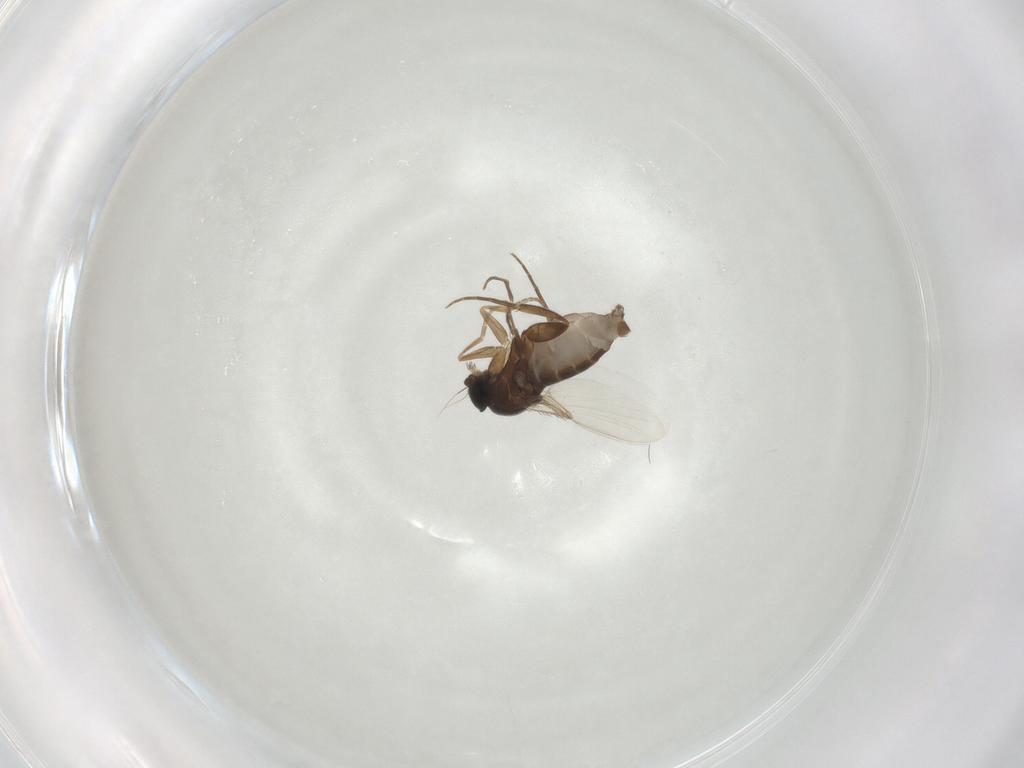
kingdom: Animalia
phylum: Arthropoda
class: Insecta
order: Diptera
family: Phoridae
